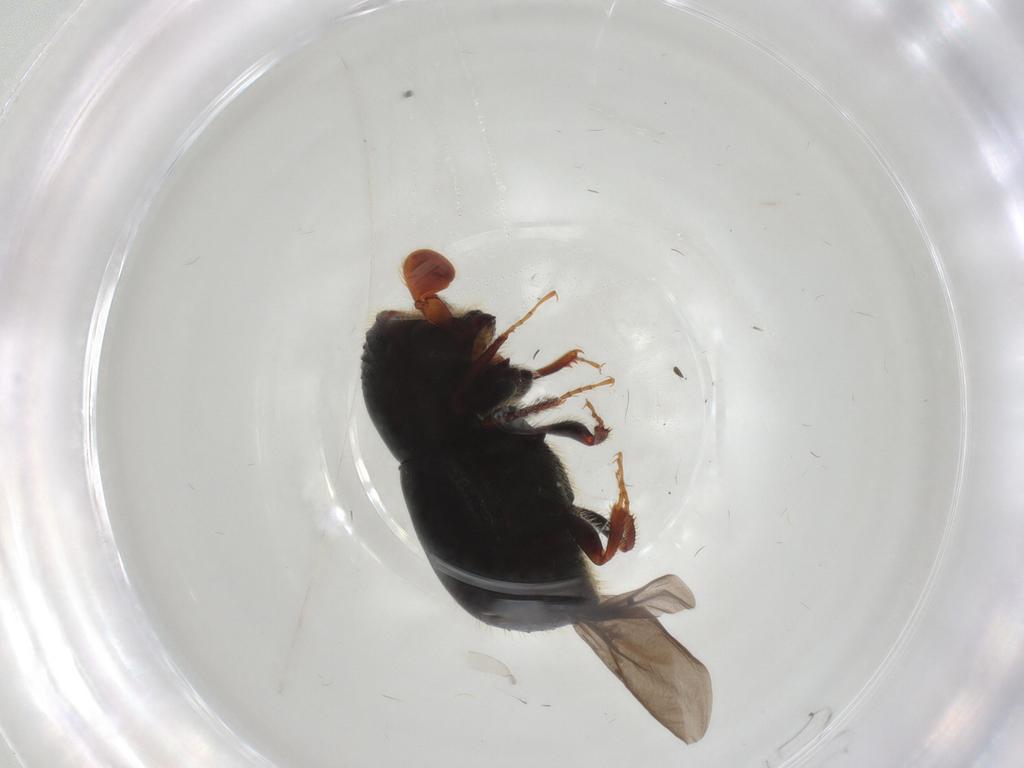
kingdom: Animalia
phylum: Arthropoda
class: Insecta
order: Coleoptera
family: Curculionidae
